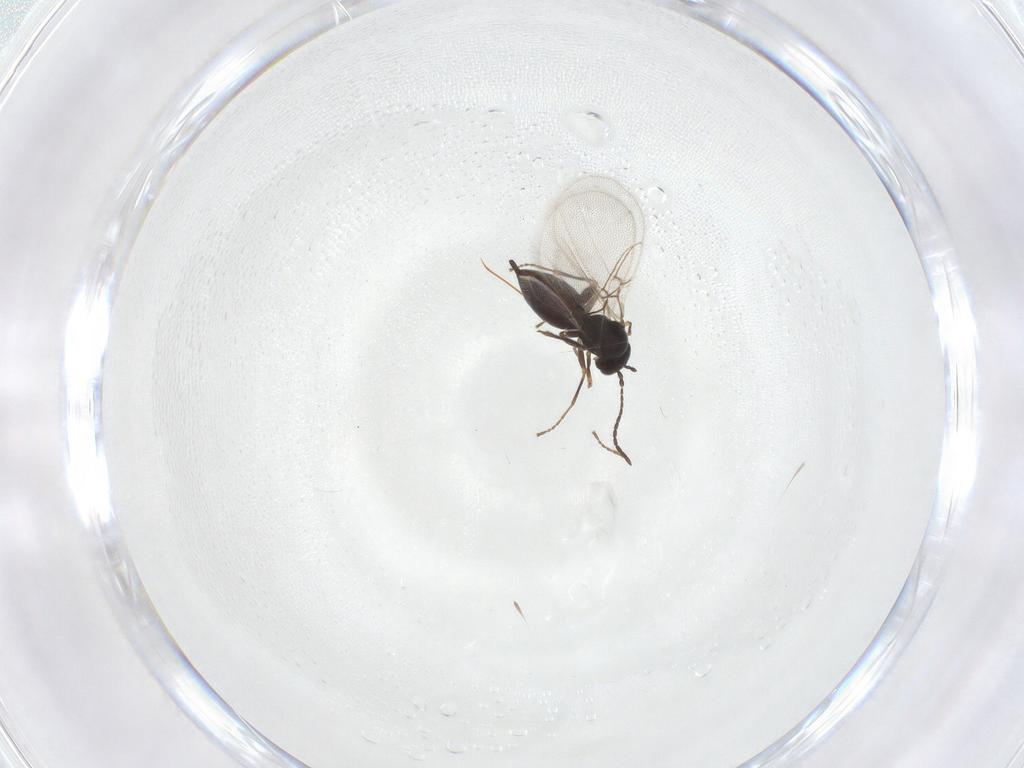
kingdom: Animalia
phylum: Arthropoda
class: Insecta
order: Hymenoptera
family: Cynipidae
